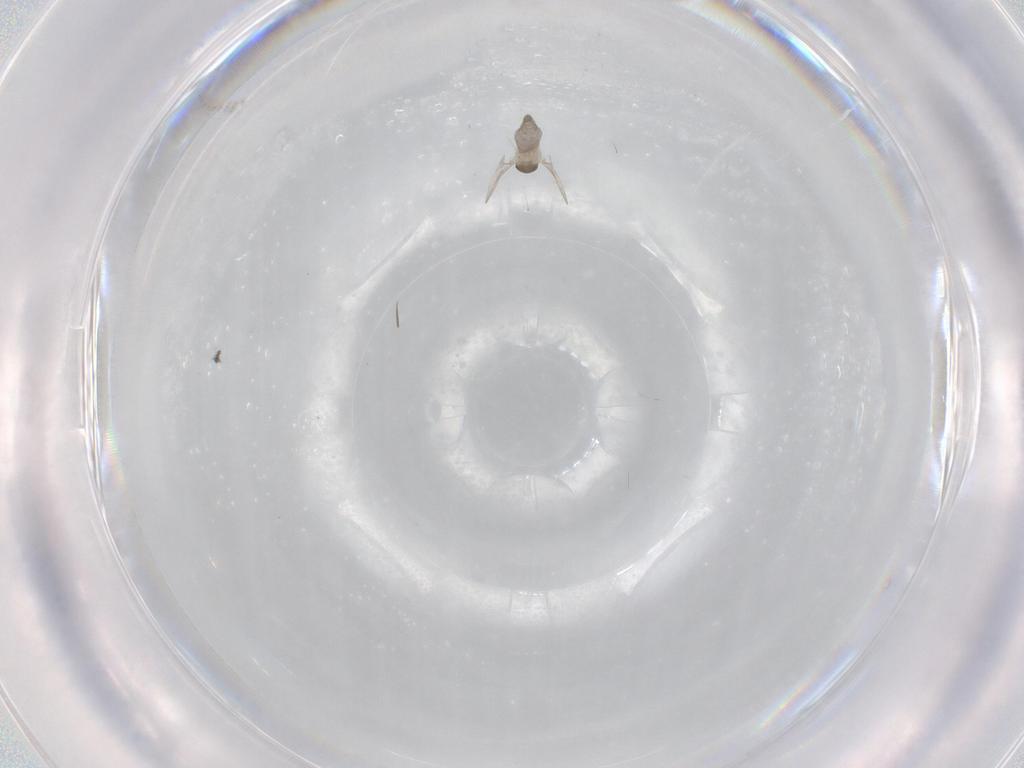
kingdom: Animalia
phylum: Arthropoda
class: Insecta
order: Diptera
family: Cecidomyiidae
